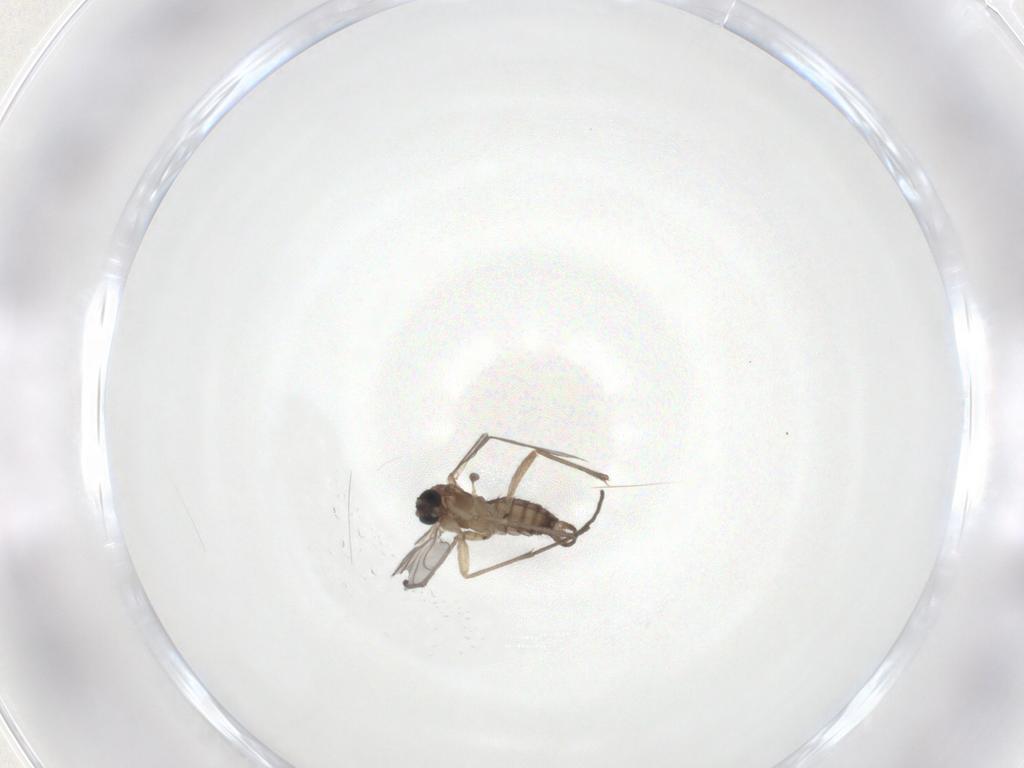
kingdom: Animalia
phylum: Arthropoda
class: Insecta
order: Diptera
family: Sciaridae
